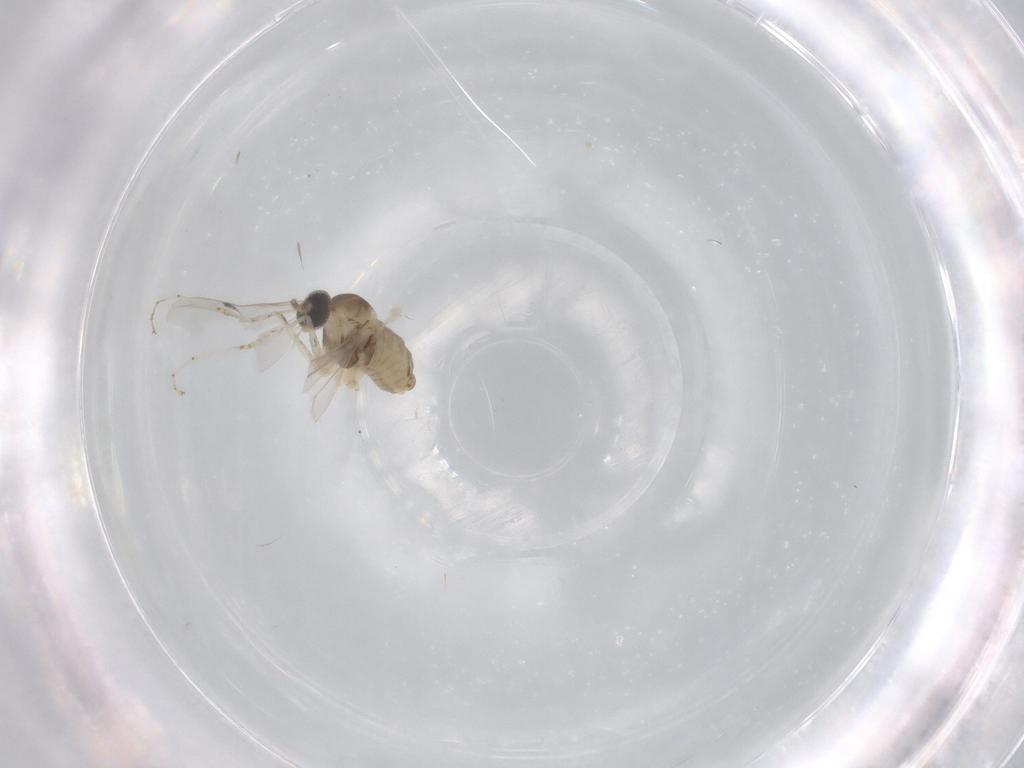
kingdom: Animalia
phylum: Arthropoda
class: Insecta
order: Diptera
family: Cecidomyiidae
